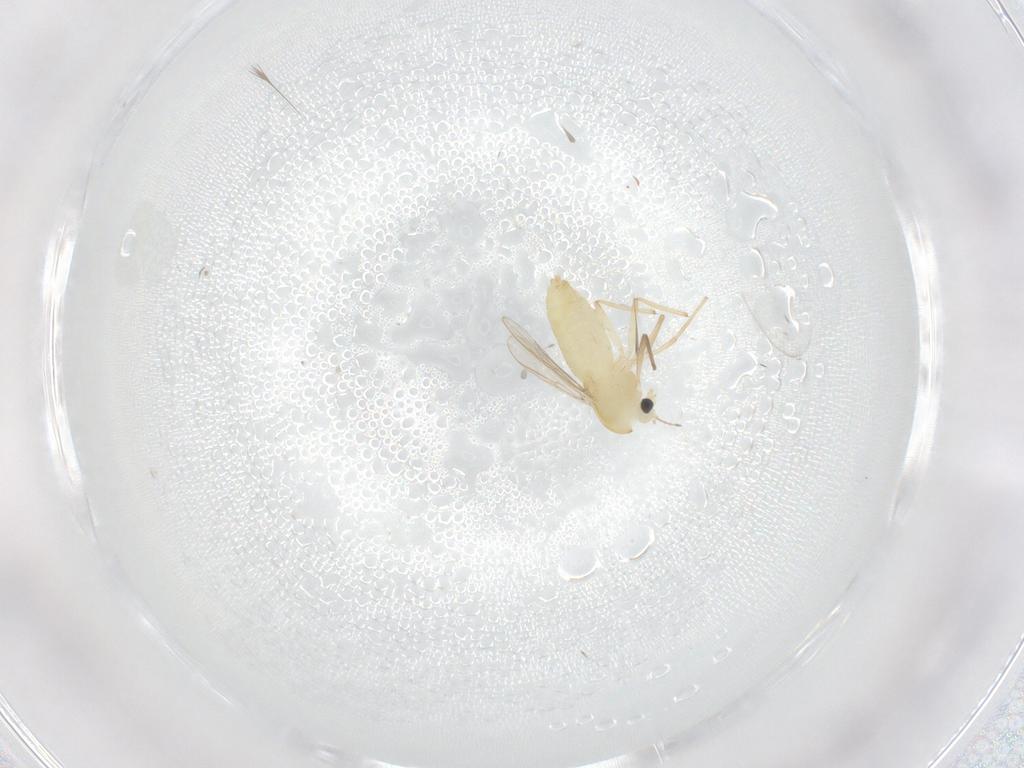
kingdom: Animalia
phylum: Arthropoda
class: Insecta
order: Diptera
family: Chironomidae
